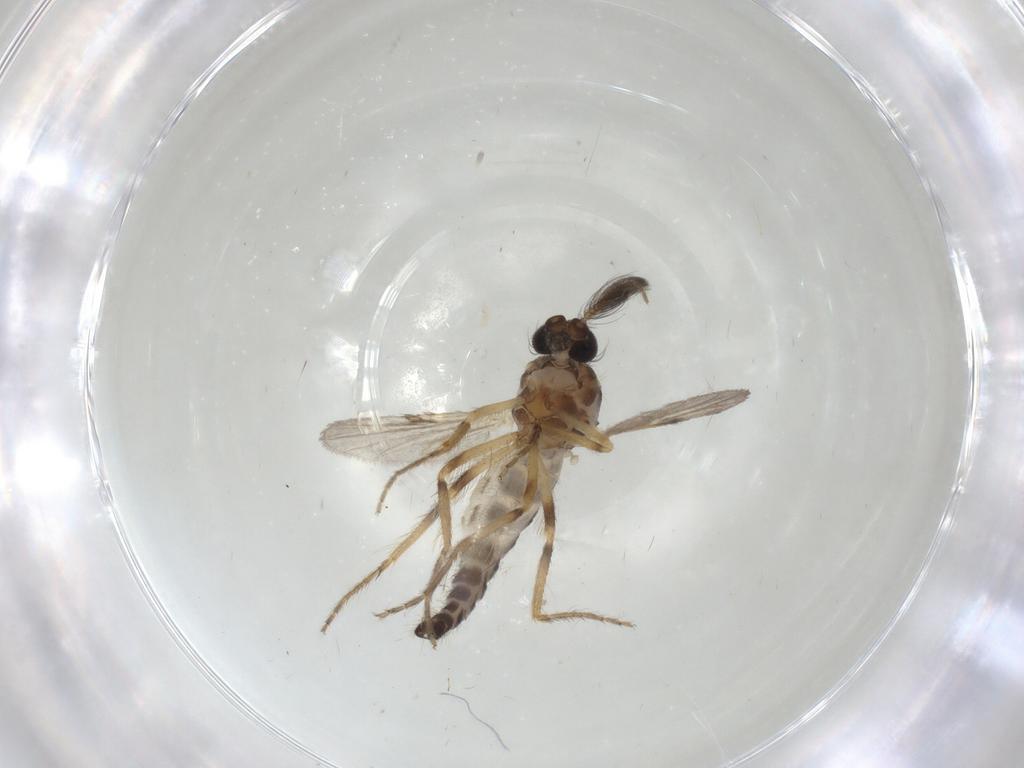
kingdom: Animalia
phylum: Arthropoda
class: Insecta
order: Diptera
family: Ceratopogonidae
